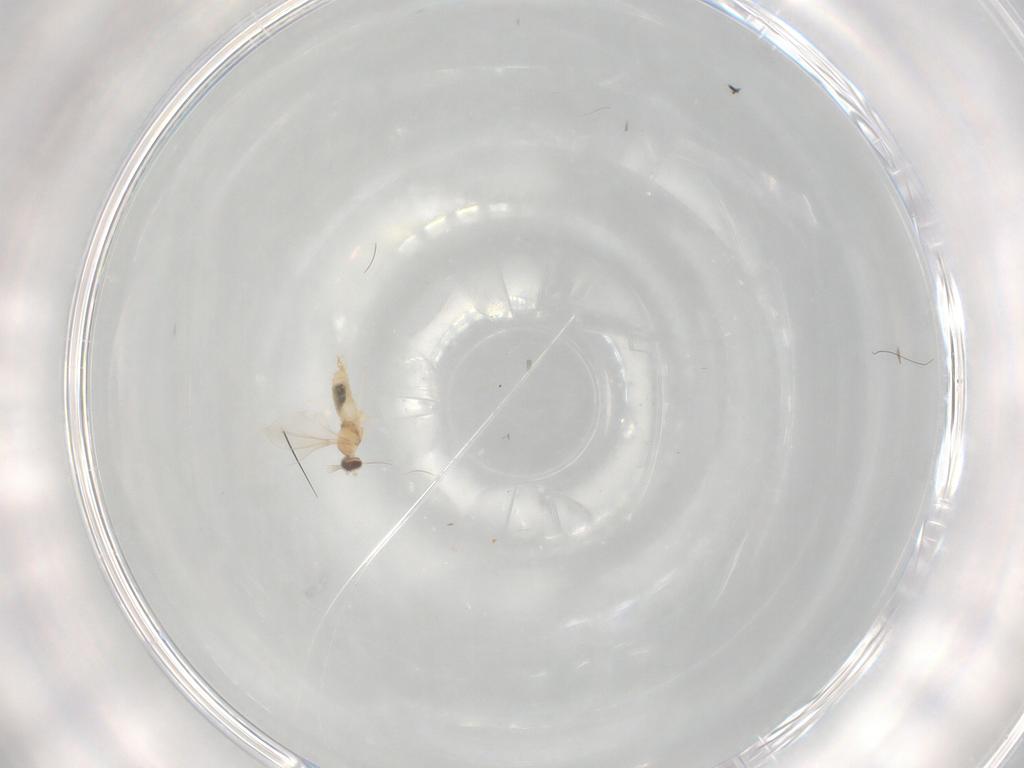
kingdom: Animalia
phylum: Arthropoda
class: Insecta
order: Diptera
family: Cecidomyiidae
